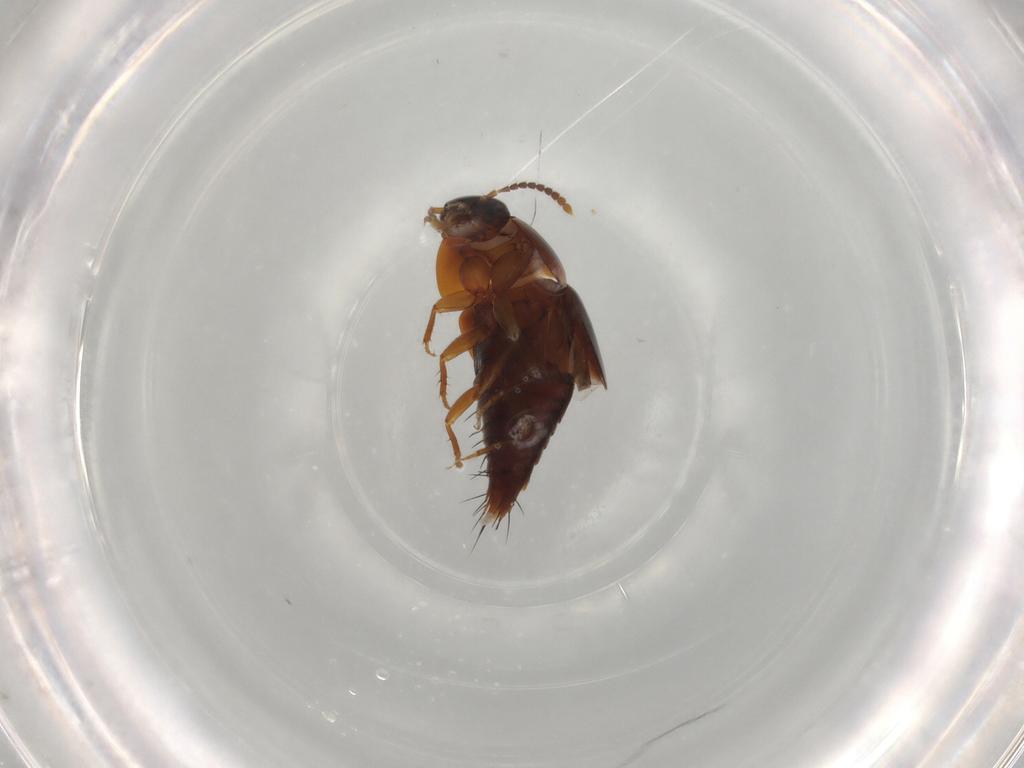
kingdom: Animalia
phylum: Arthropoda
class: Insecta
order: Coleoptera
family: Staphylinidae
